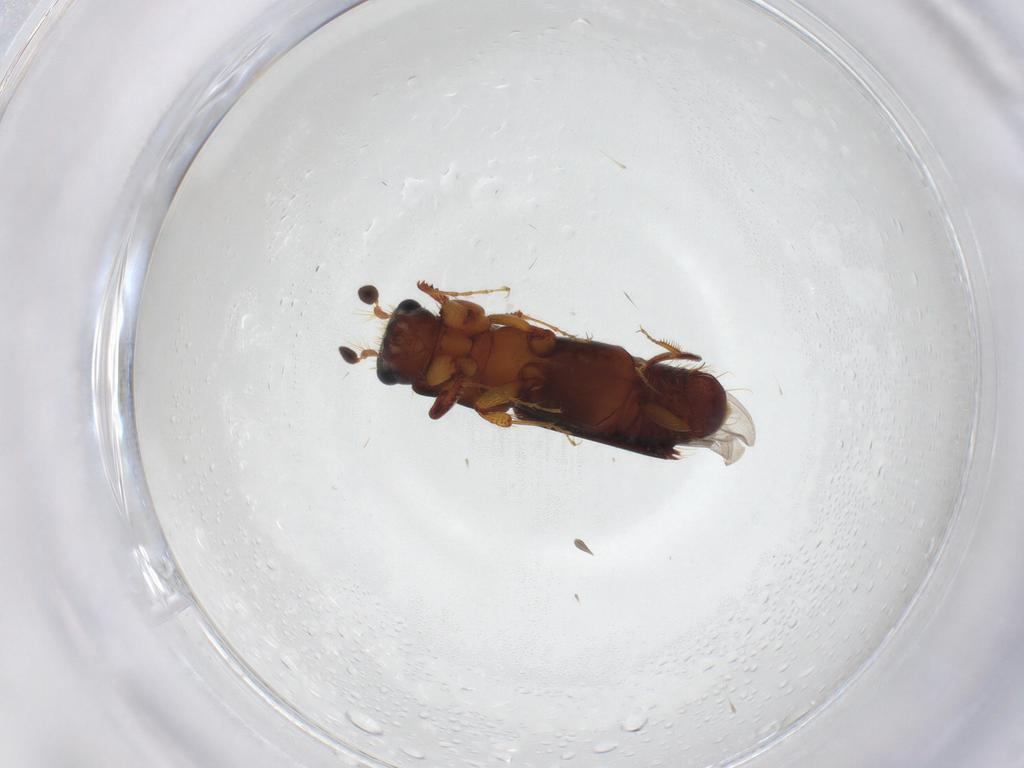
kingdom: Animalia
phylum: Arthropoda
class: Insecta
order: Coleoptera
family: Curculionidae
